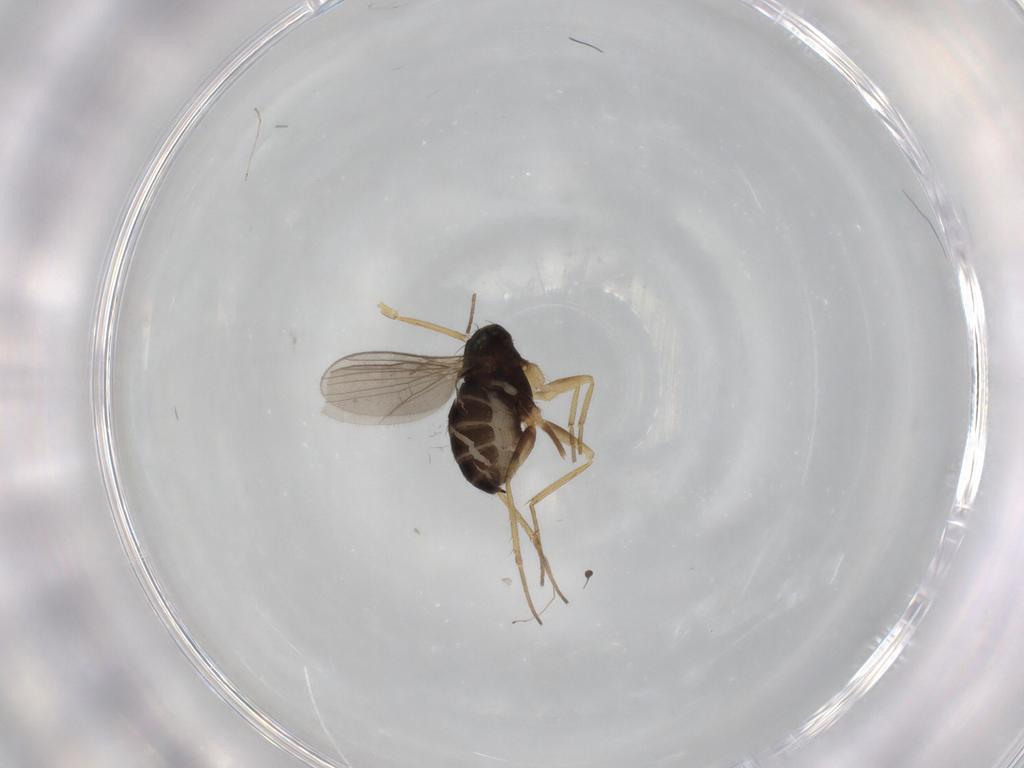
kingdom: Animalia
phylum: Arthropoda
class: Insecta
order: Diptera
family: Dolichopodidae
